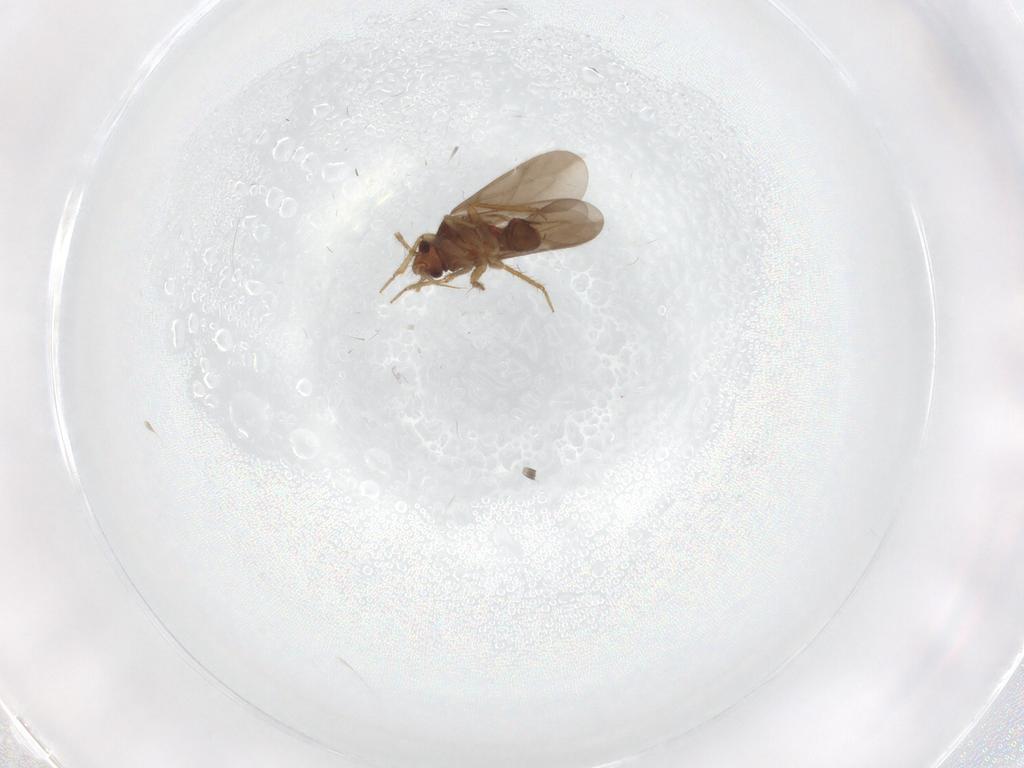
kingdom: Animalia
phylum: Arthropoda
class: Insecta
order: Hemiptera
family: Ceratocombidae
